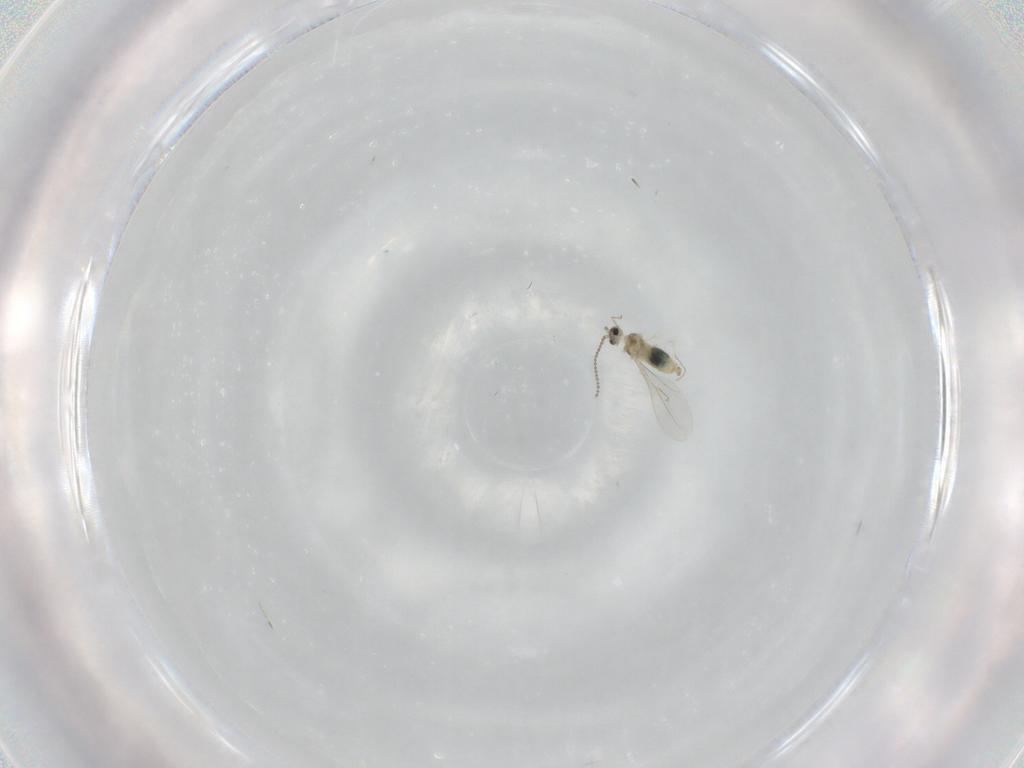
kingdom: Animalia
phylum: Arthropoda
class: Insecta
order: Diptera
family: Cecidomyiidae
